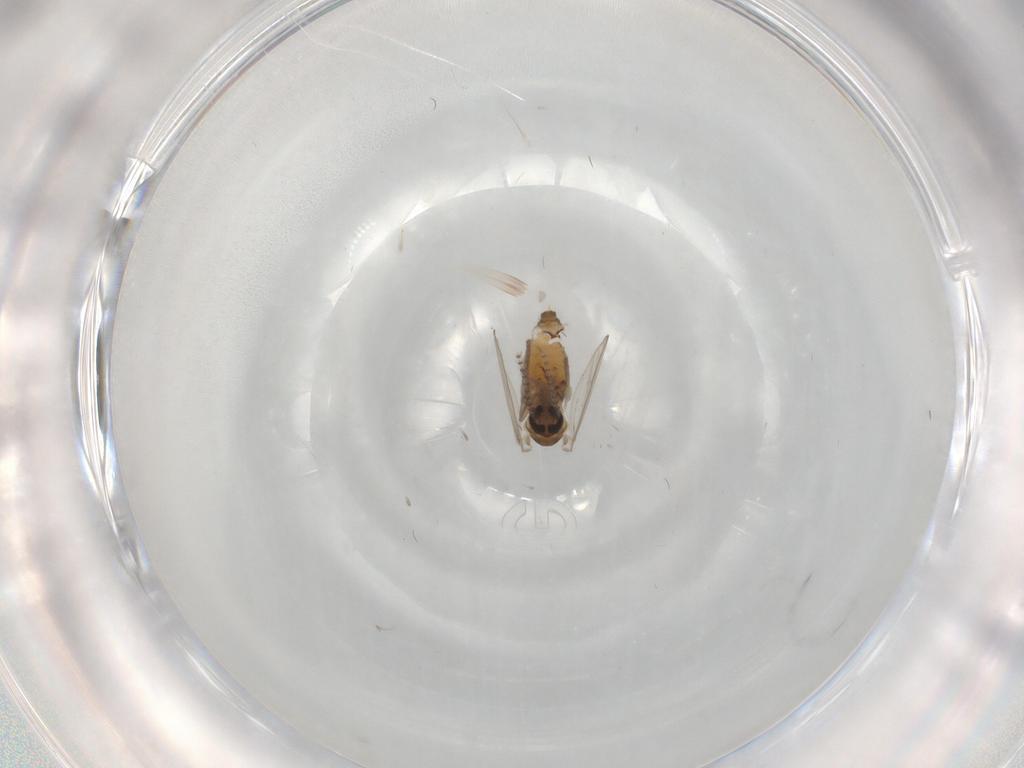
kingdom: Animalia
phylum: Arthropoda
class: Insecta
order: Diptera
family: Psychodidae
